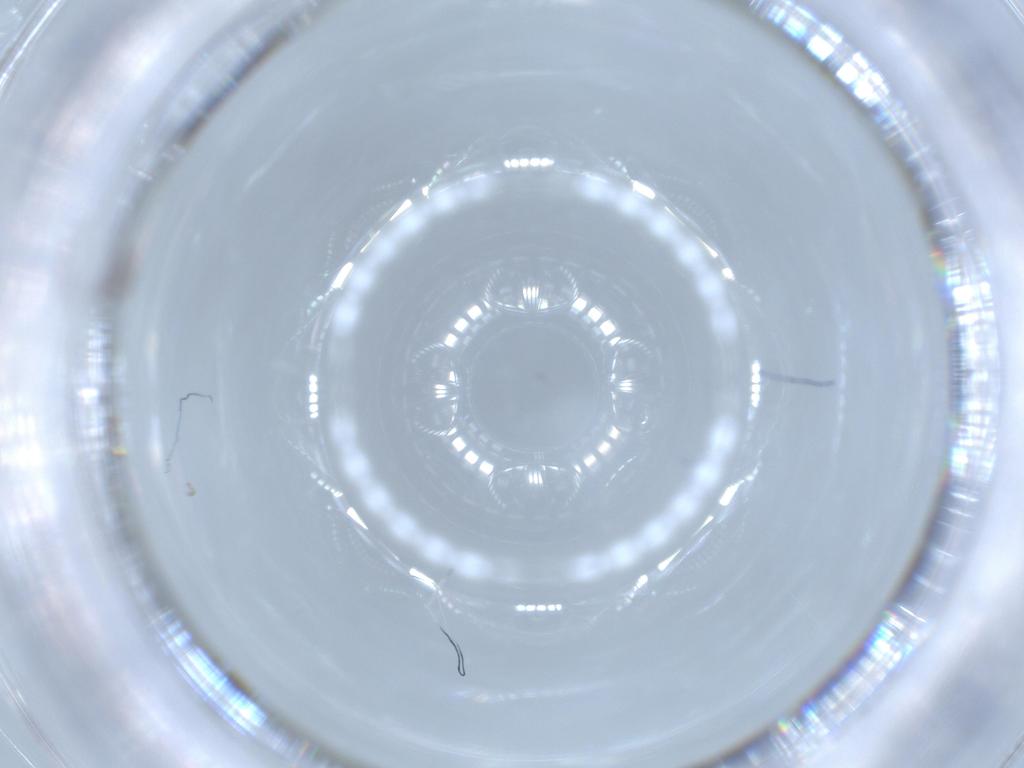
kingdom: Animalia
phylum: Arthropoda
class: Insecta
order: Diptera
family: Cecidomyiidae
